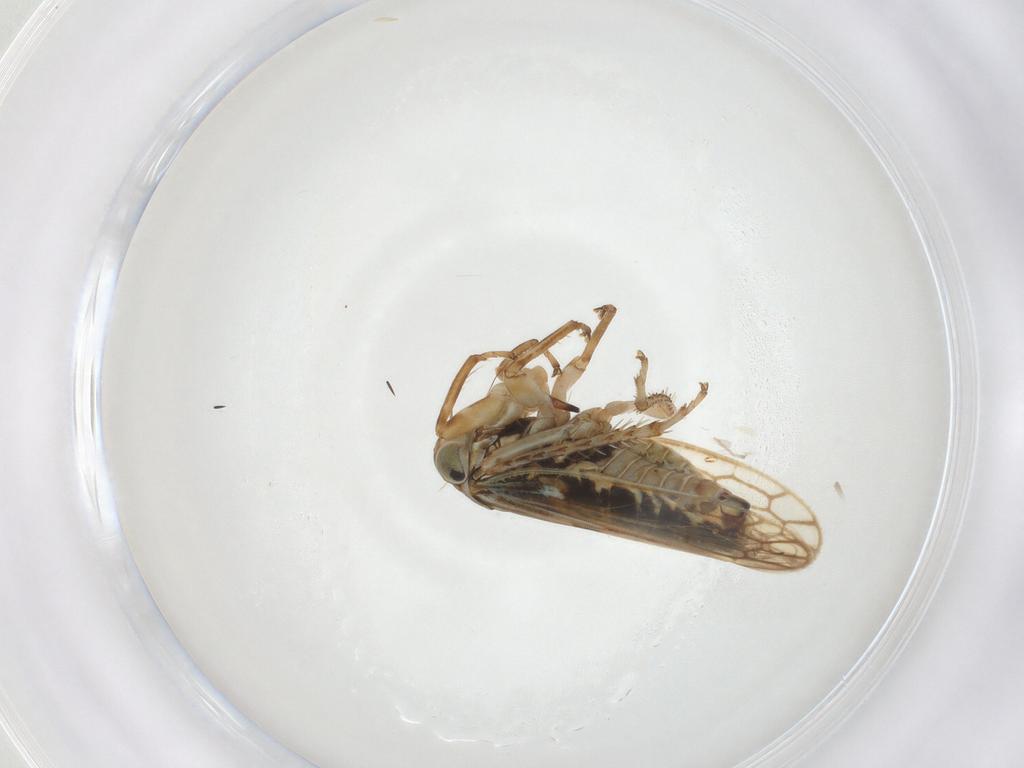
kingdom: Animalia
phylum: Arthropoda
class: Insecta
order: Hemiptera
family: Cicadellidae
